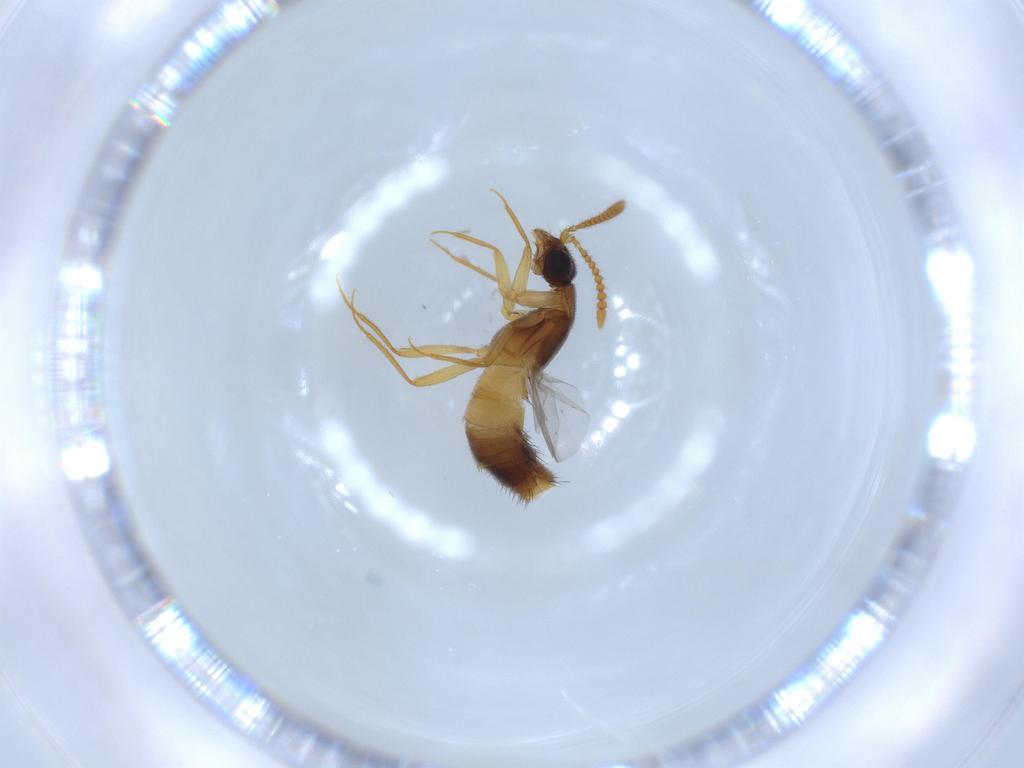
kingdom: Animalia
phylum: Arthropoda
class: Insecta
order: Coleoptera
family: Staphylinidae
